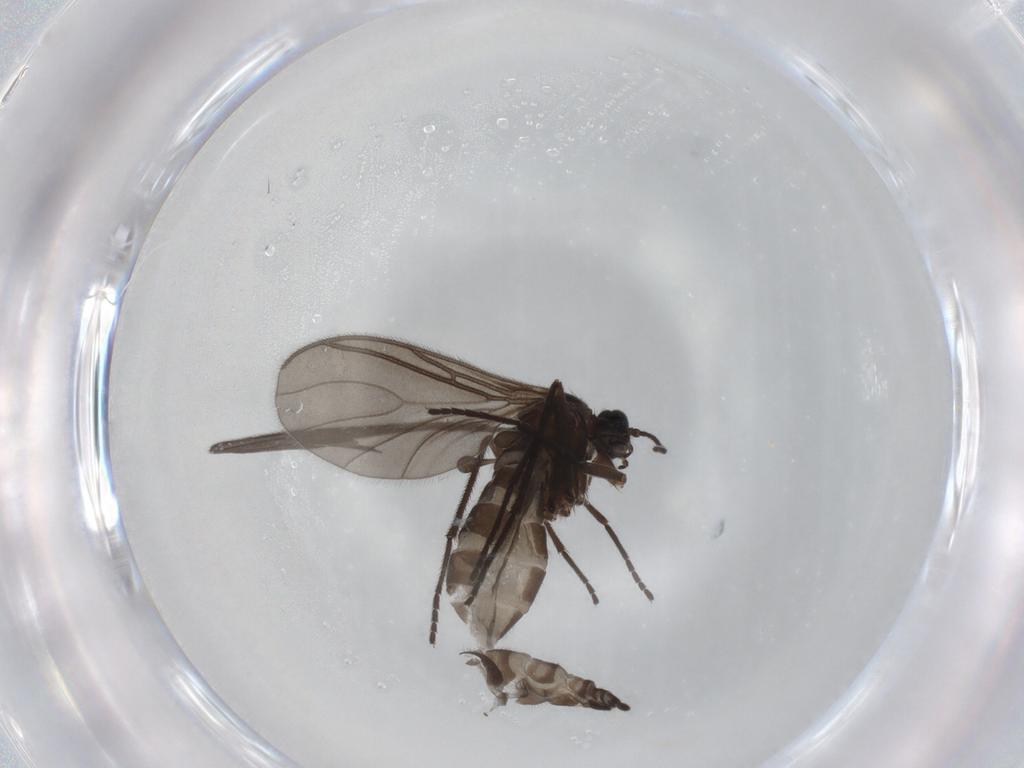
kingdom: Animalia
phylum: Arthropoda
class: Insecta
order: Diptera
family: Sciaridae
